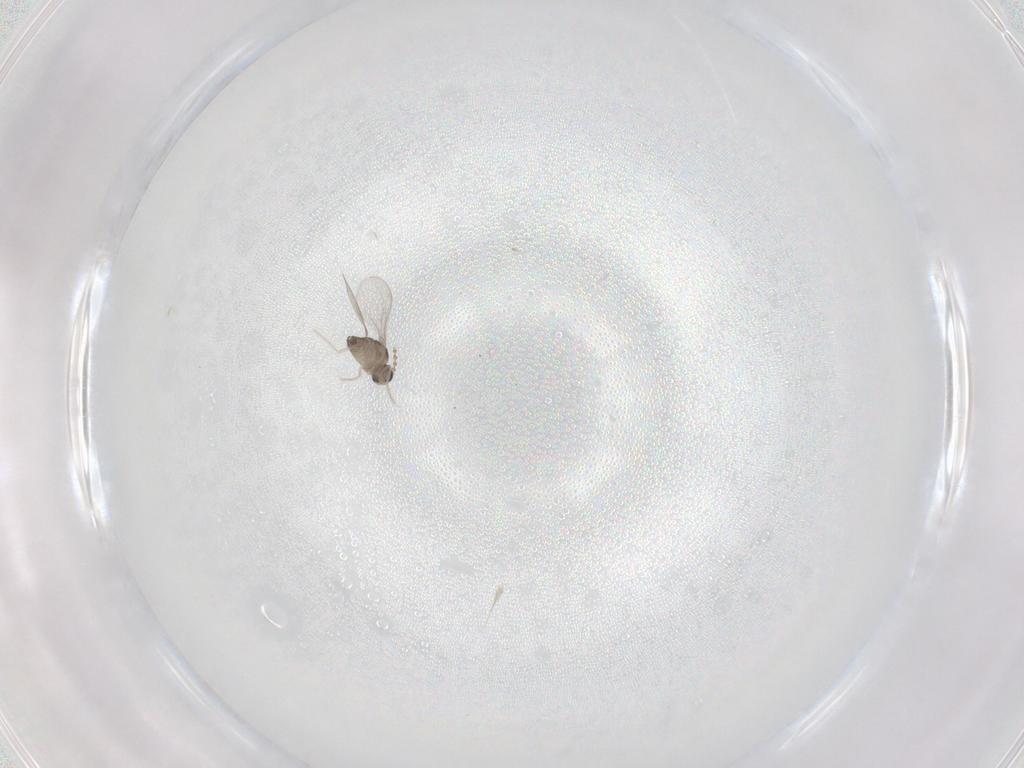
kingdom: Animalia
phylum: Arthropoda
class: Insecta
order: Diptera
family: Cecidomyiidae
